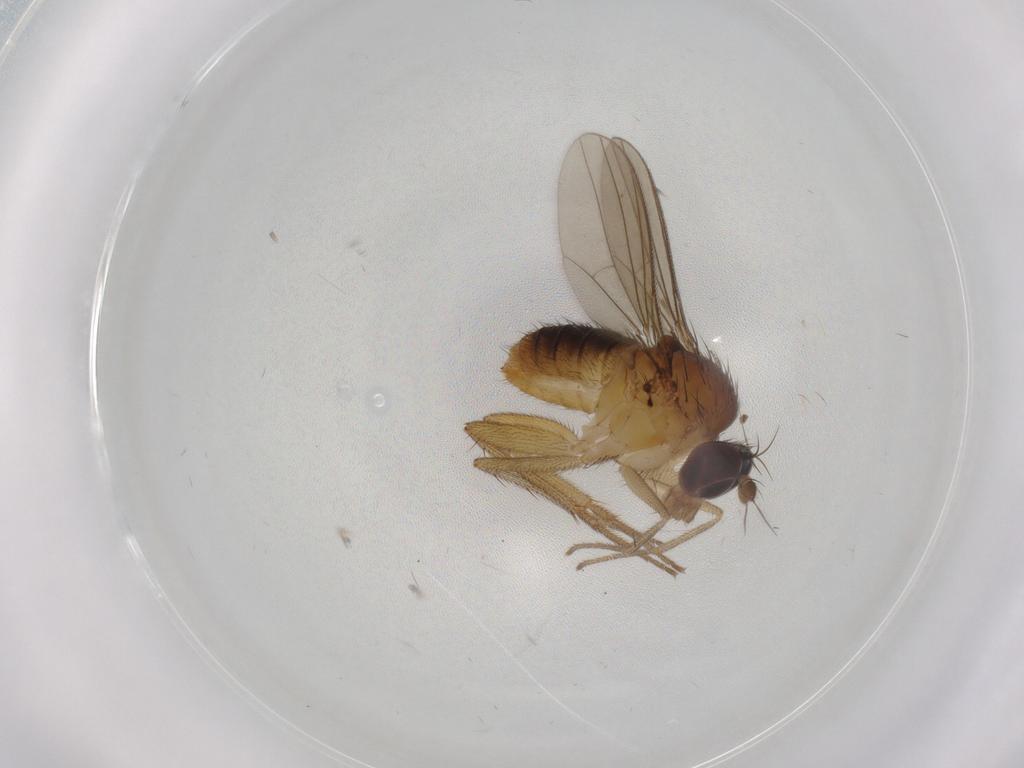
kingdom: Animalia
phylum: Arthropoda
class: Insecta
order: Diptera
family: Dolichopodidae
